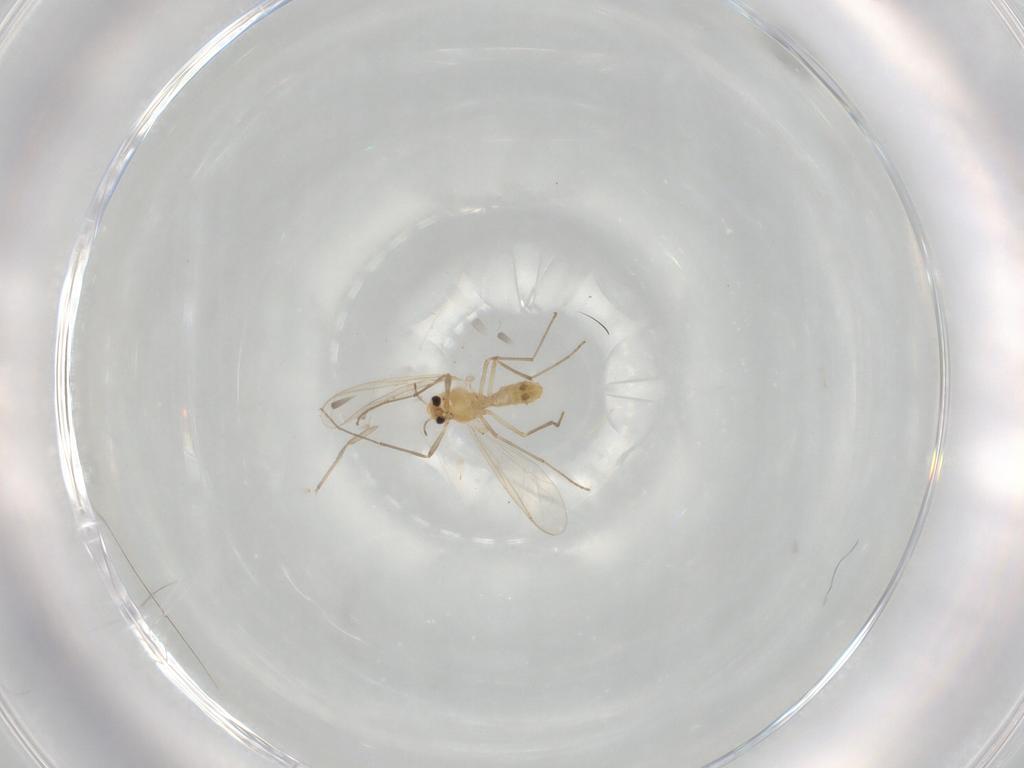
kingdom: Animalia
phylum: Arthropoda
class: Insecta
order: Diptera
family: Chironomidae
